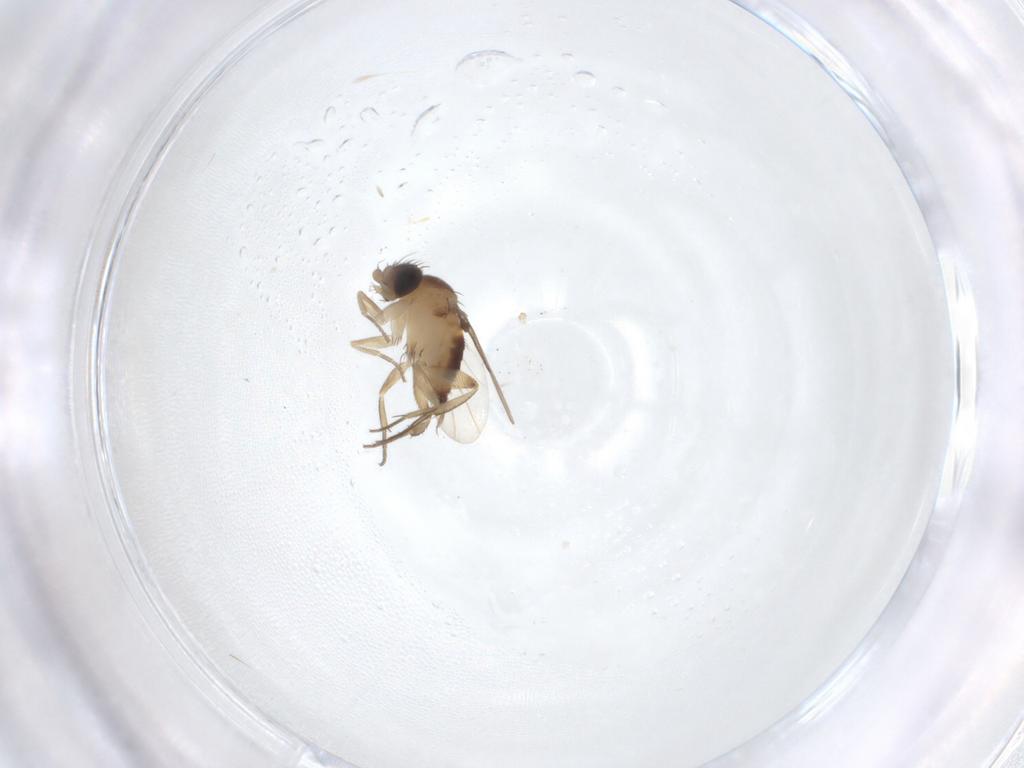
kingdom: Animalia
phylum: Arthropoda
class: Insecta
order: Diptera
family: Phoridae
